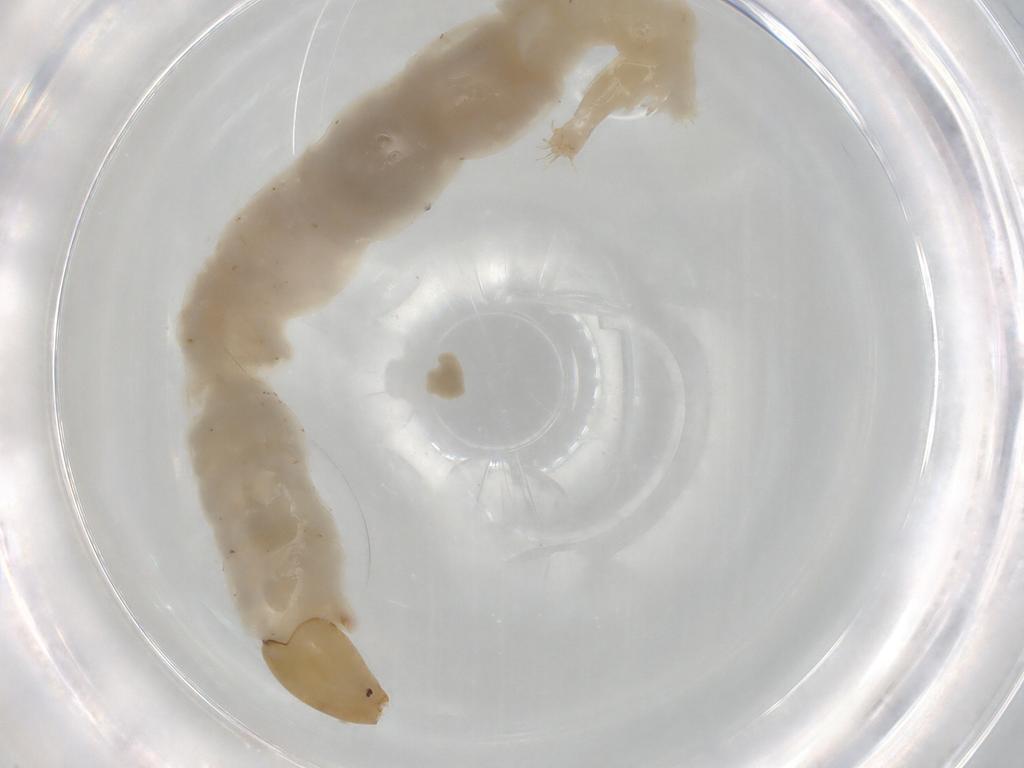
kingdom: Animalia
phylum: Arthropoda
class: Insecta
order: Diptera
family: Chironomidae
